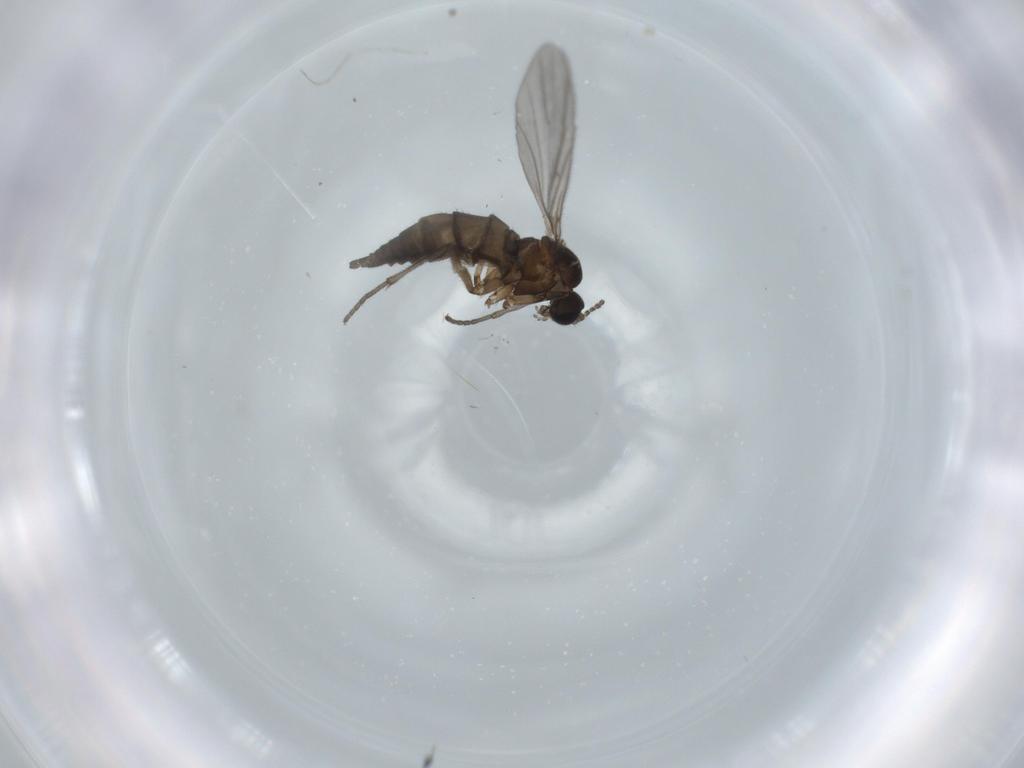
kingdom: Animalia
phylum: Arthropoda
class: Insecta
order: Diptera
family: Sciaridae
